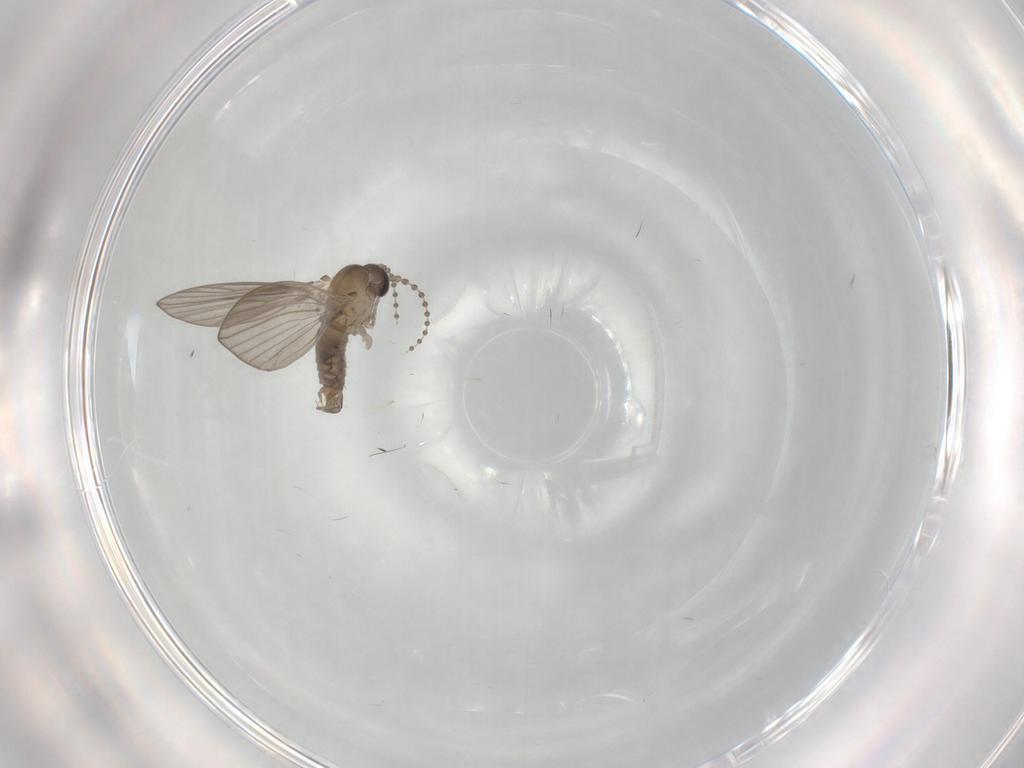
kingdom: Animalia
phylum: Arthropoda
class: Insecta
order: Diptera
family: Psychodidae
